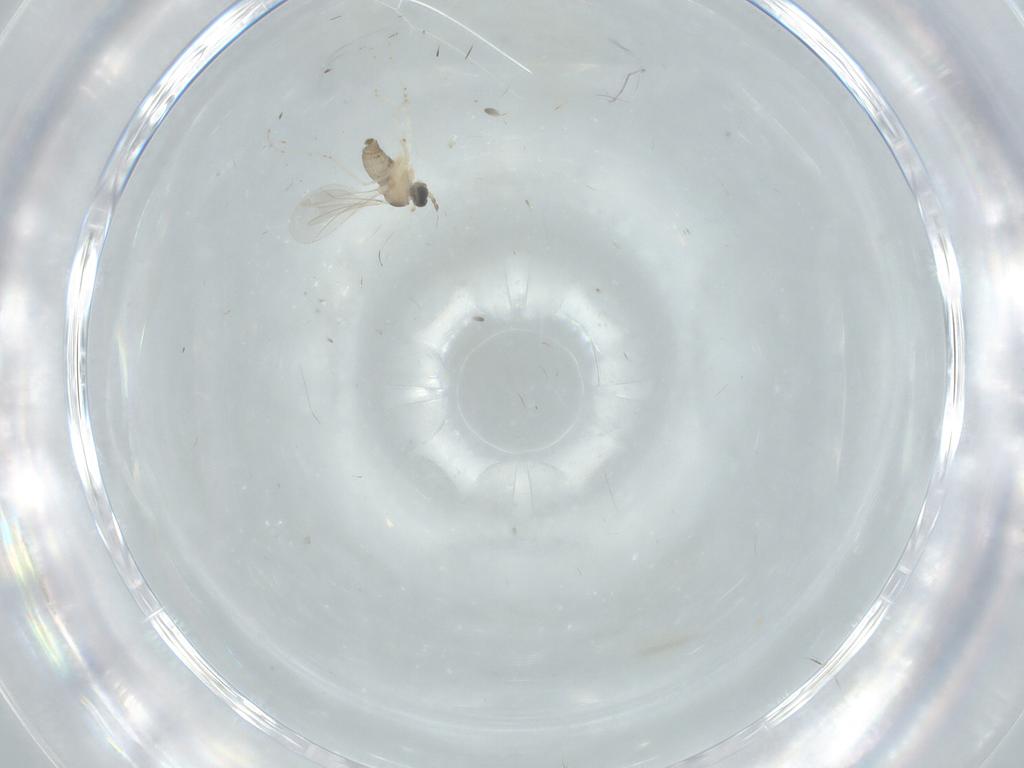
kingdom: Animalia
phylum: Arthropoda
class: Insecta
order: Diptera
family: Cecidomyiidae
